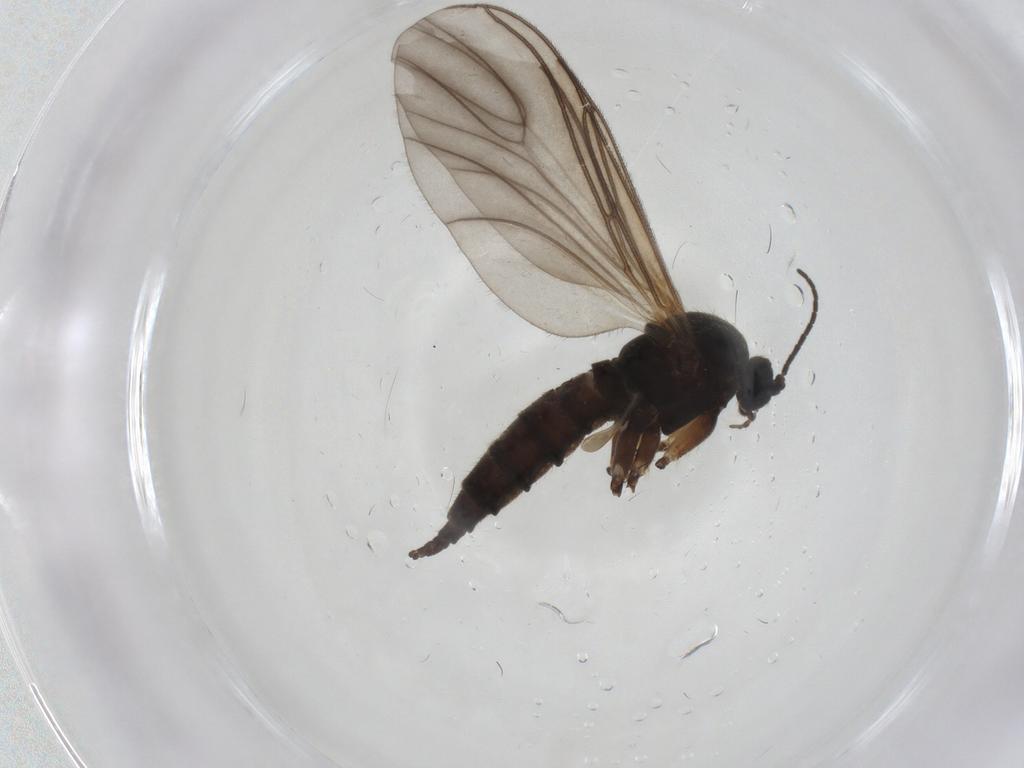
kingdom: Animalia
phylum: Arthropoda
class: Insecta
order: Diptera
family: Sciaridae
